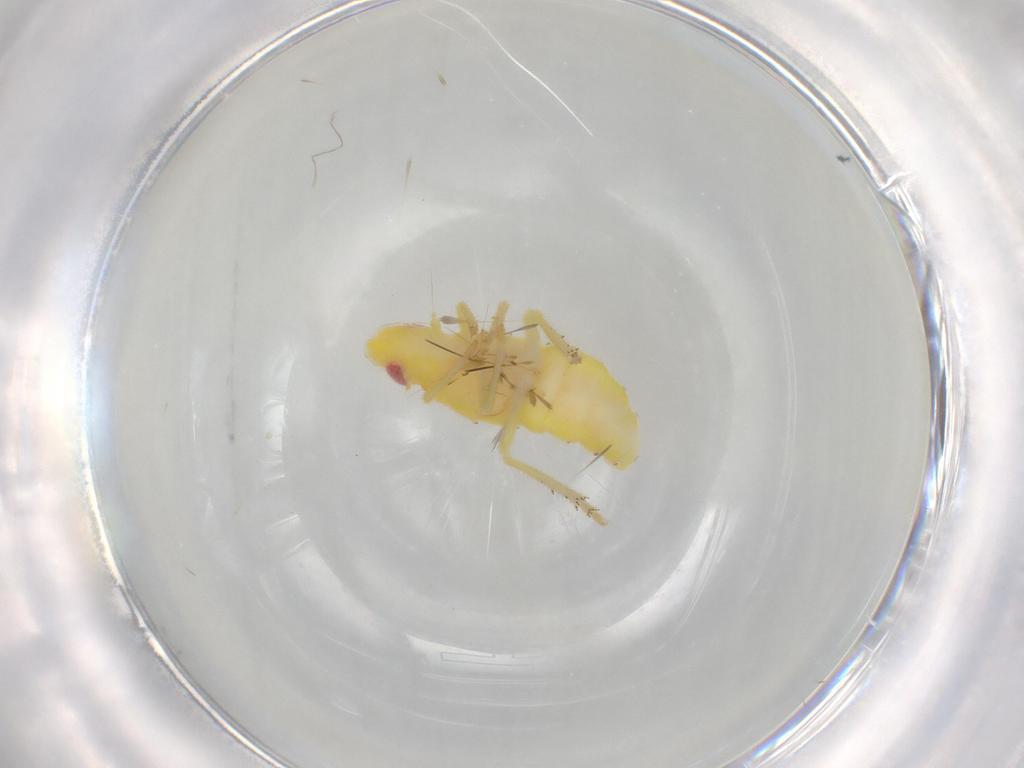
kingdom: Animalia
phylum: Arthropoda
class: Insecta
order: Hemiptera
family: Tropiduchidae
